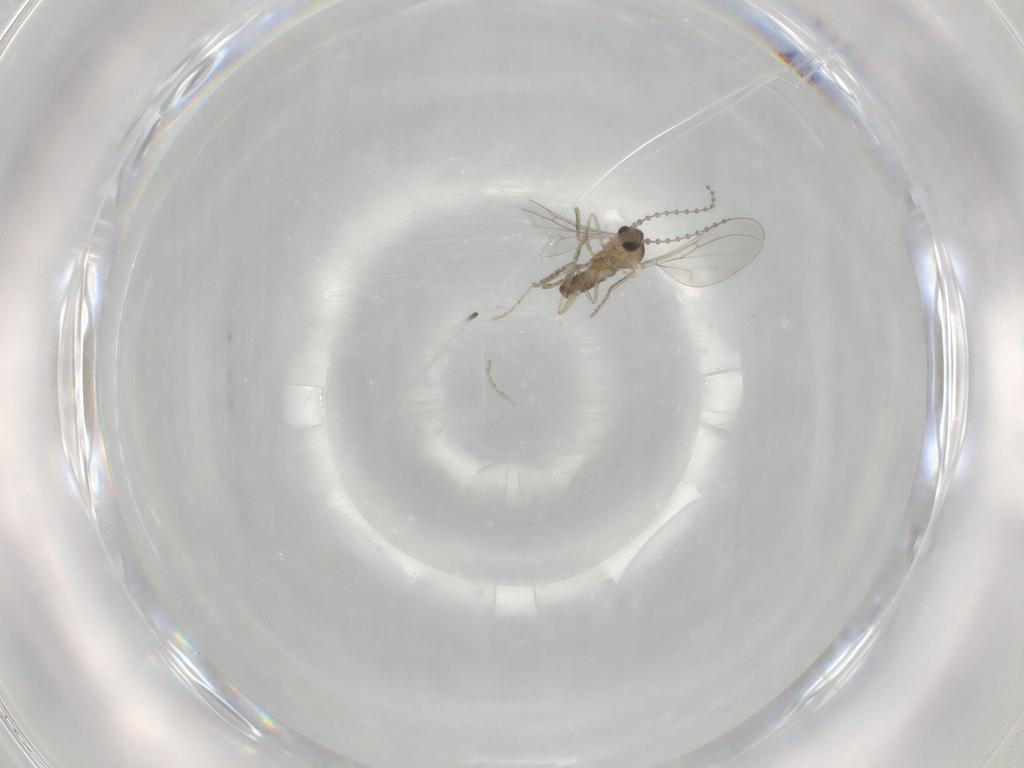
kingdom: Animalia
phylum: Arthropoda
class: Insecta
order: Diptera
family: Cecidomyiidae
